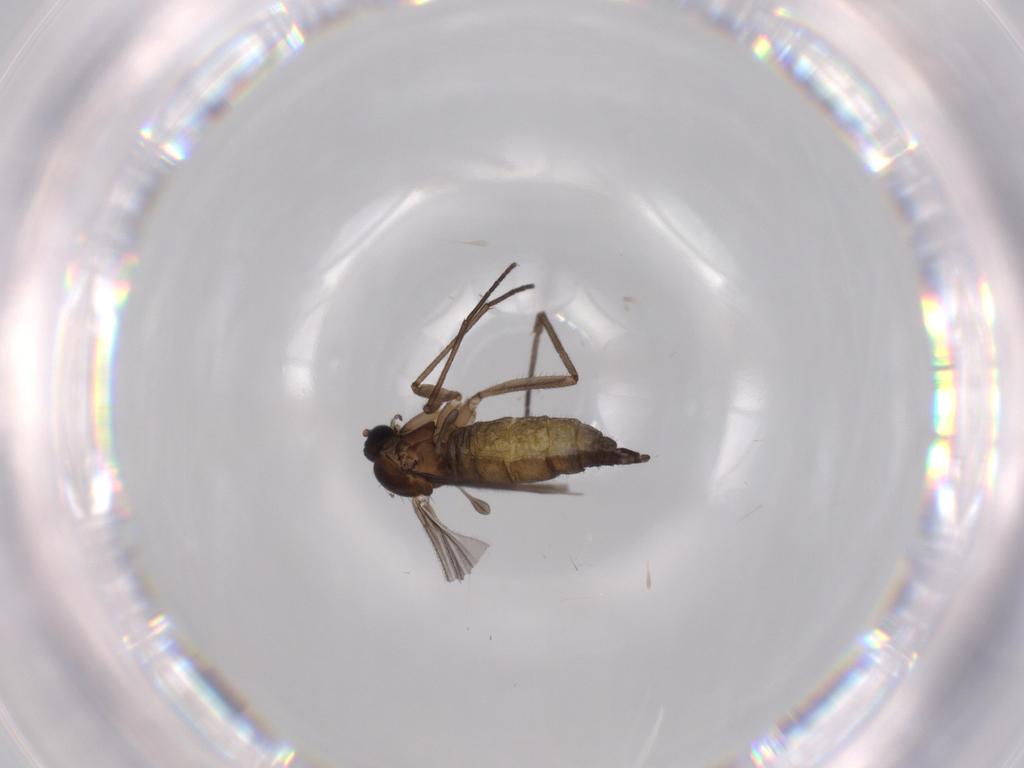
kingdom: Animalia
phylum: Arthropoda
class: Insecta
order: Diptera
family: Sciaridae
